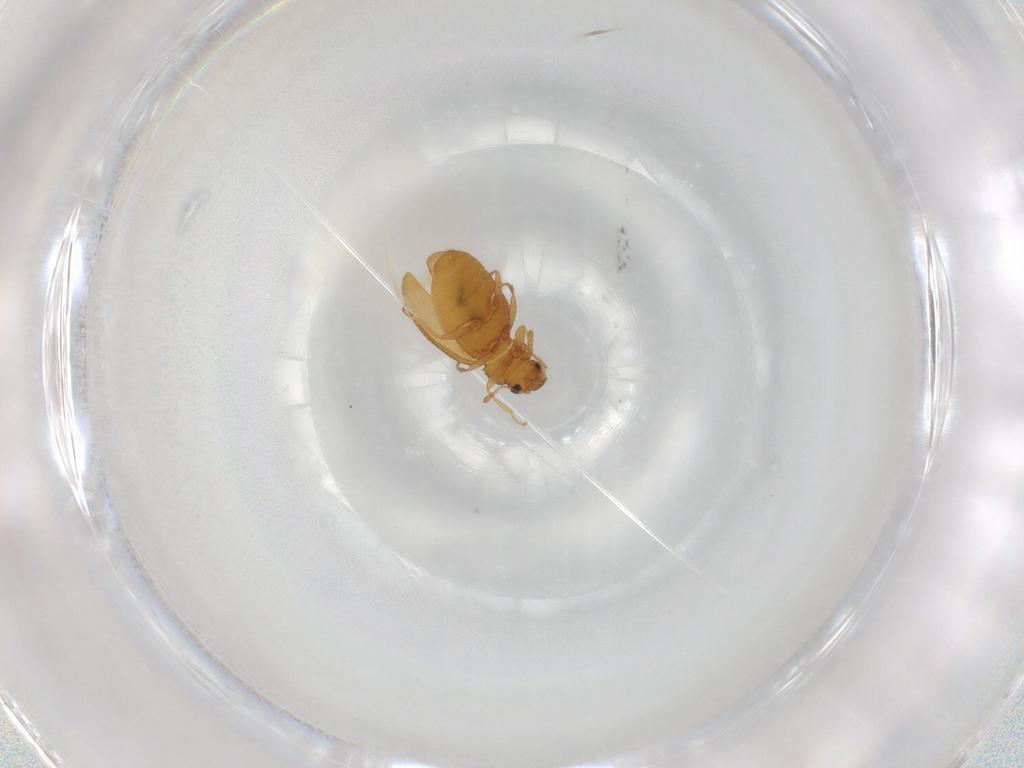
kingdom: Animalia
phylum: Arthropoda
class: Insecta
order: Coleoptera
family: Latridiidae
